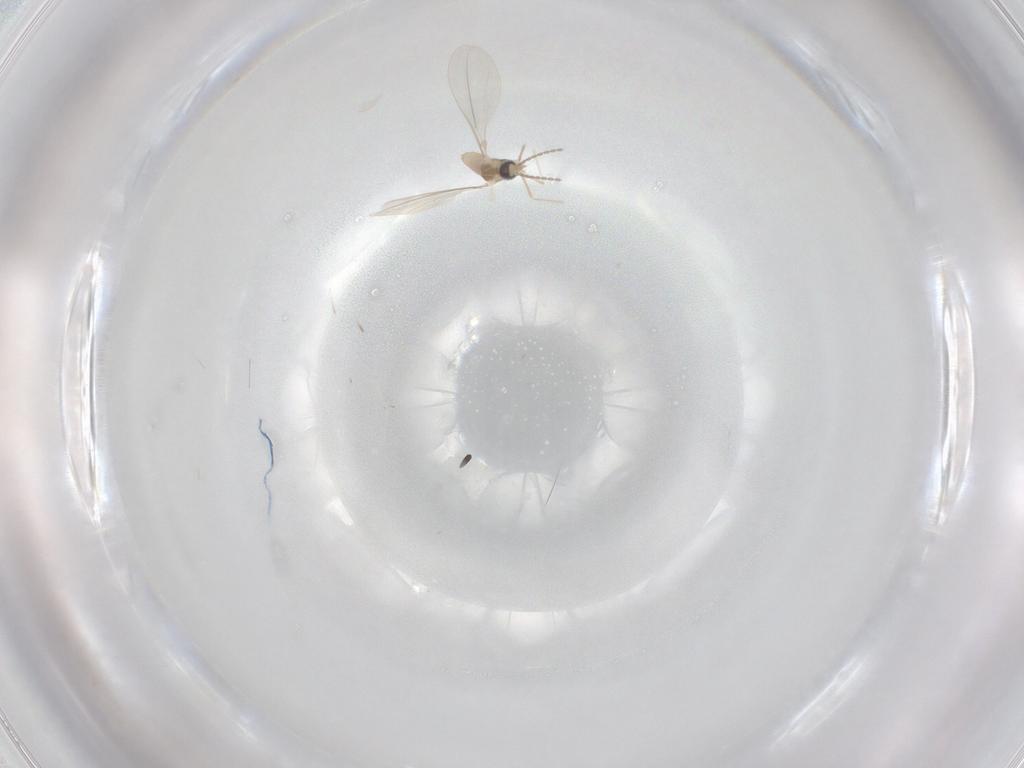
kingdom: Animalia
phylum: Arthropoda
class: Insecta
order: Diptera
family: Cecidomyiidae
